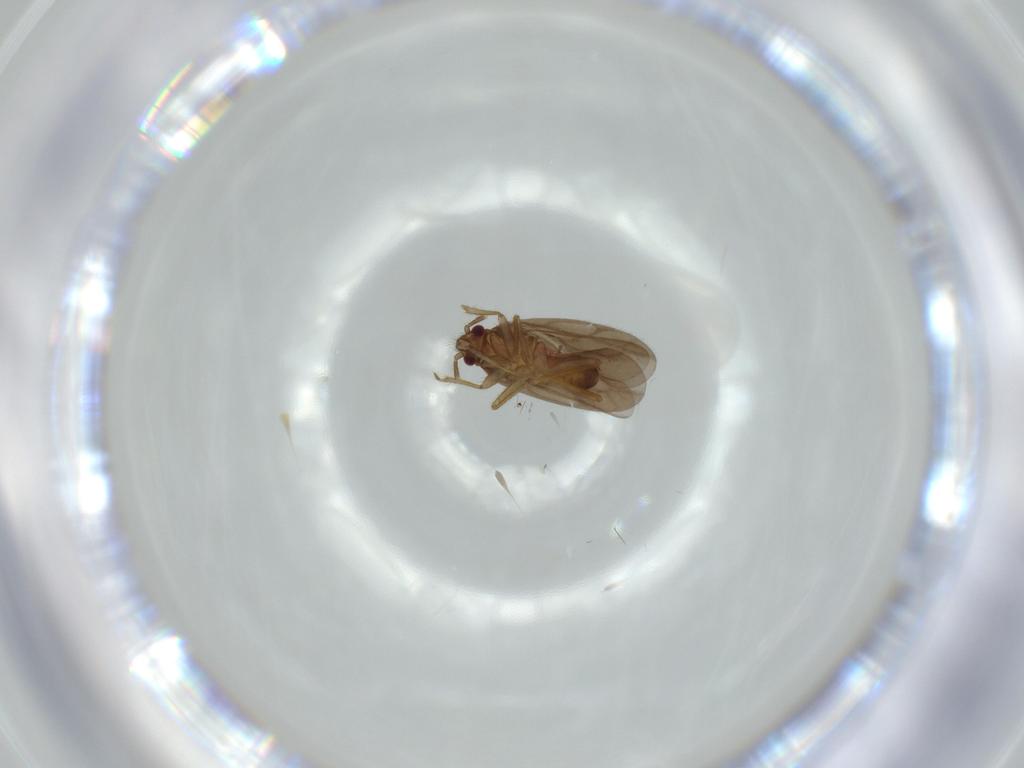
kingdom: Animalia
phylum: Arthropoda
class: Insecta
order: Hemiptera
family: Ceratocombidae
